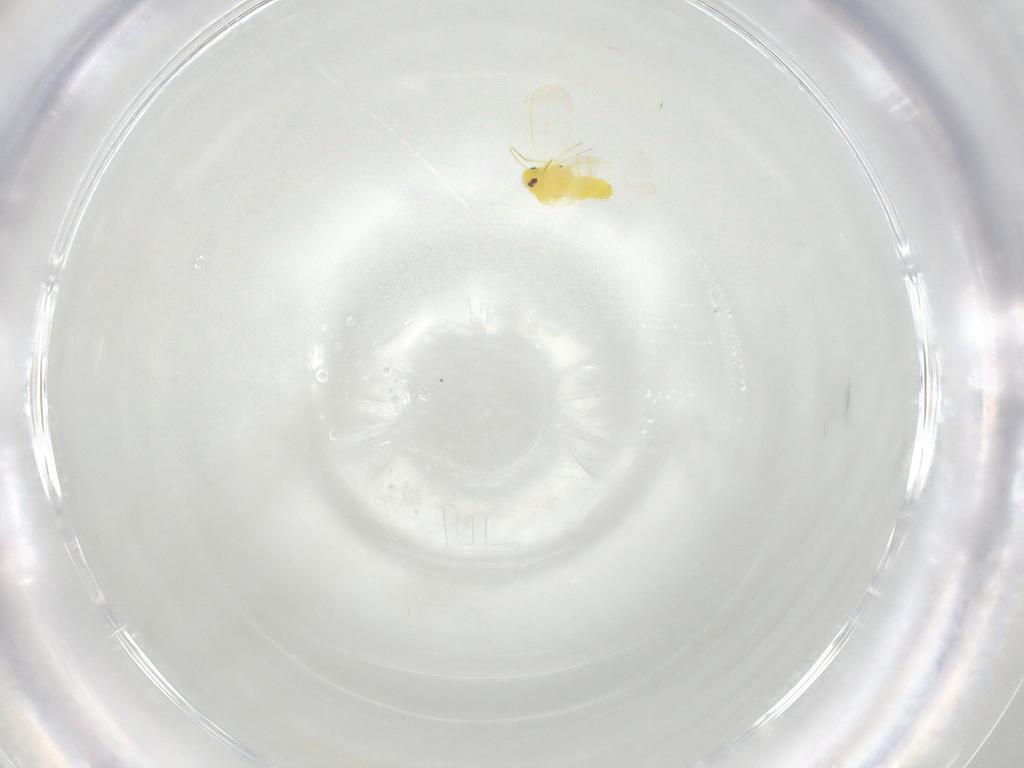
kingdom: Animalia
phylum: Arthropoda
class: Insecta
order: Hemiptera
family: Aleyrodidae
